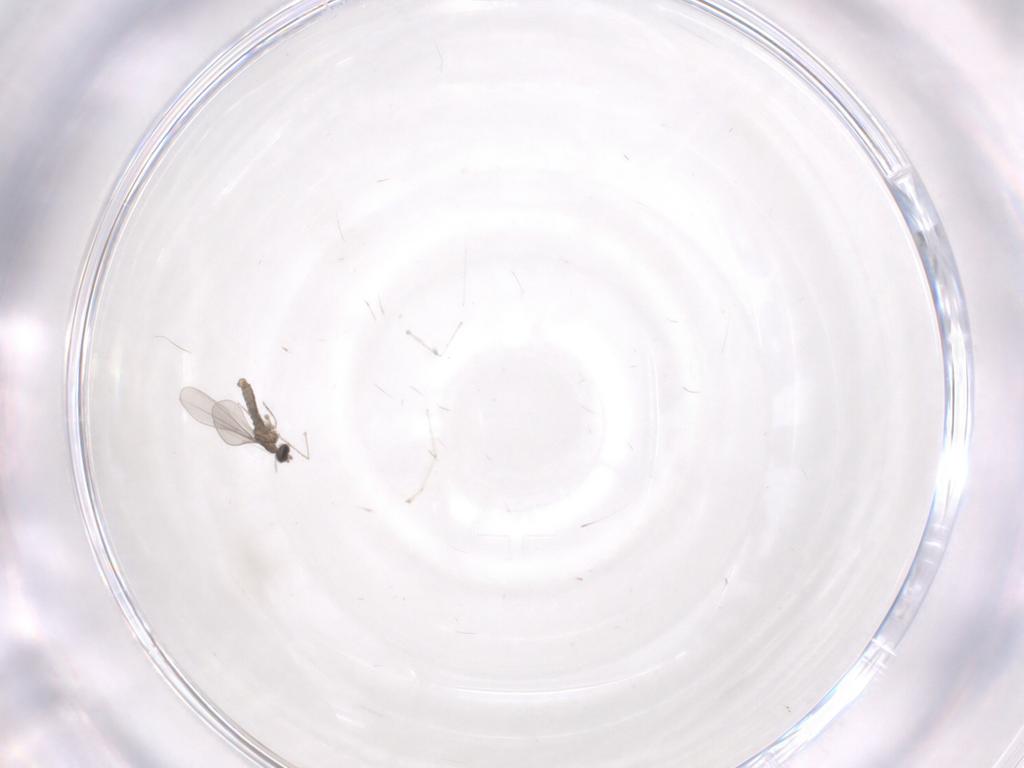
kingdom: Animalia
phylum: Arthropoda
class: Insecta
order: Diptera
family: Cecidomyiidae
